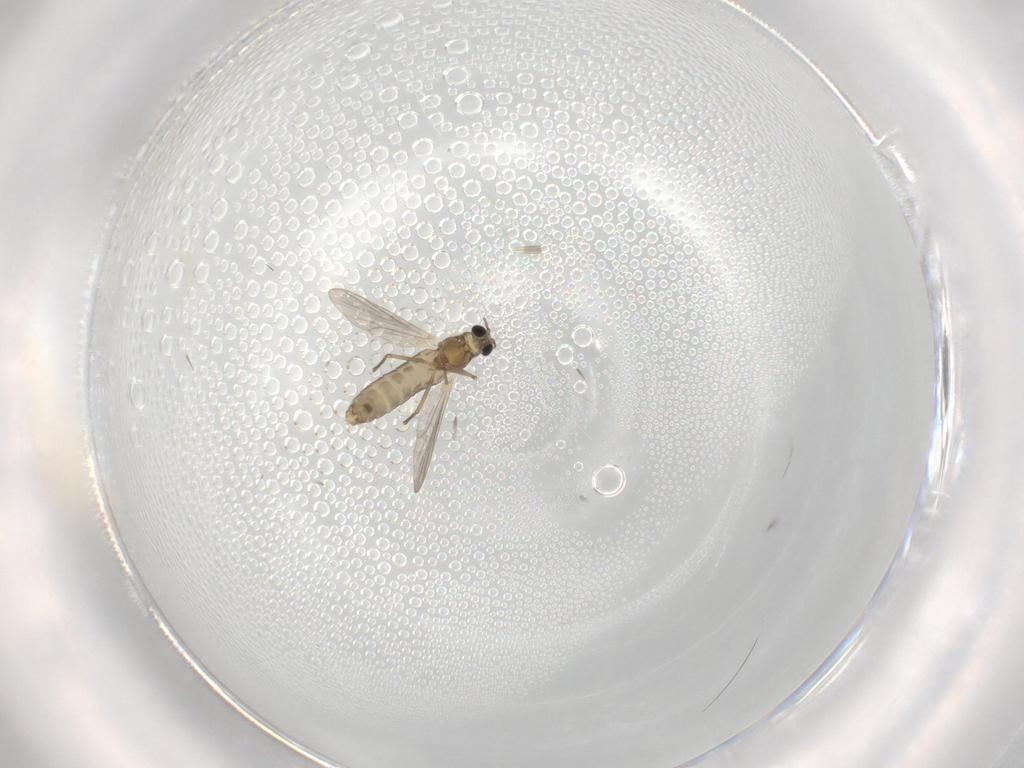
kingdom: Animalia
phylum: Arthropoda
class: Insecta
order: Diptera
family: Chironomidae
